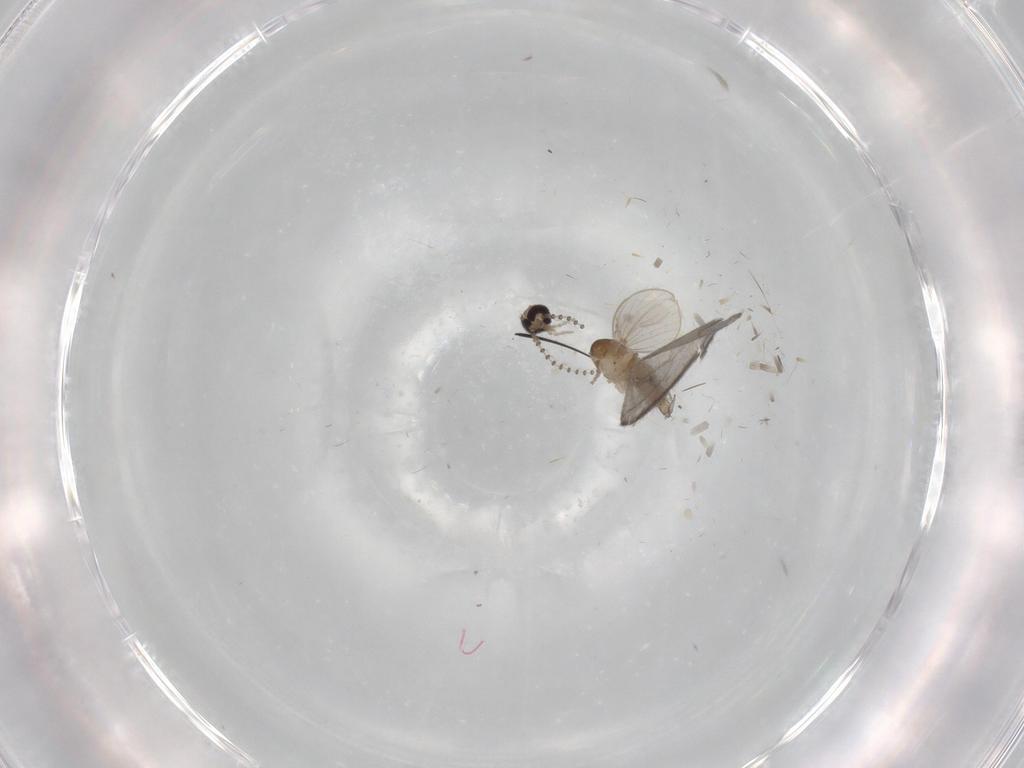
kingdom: Animalia
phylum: Arthropoda
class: Insecta
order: Diptera
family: Psychodidae
